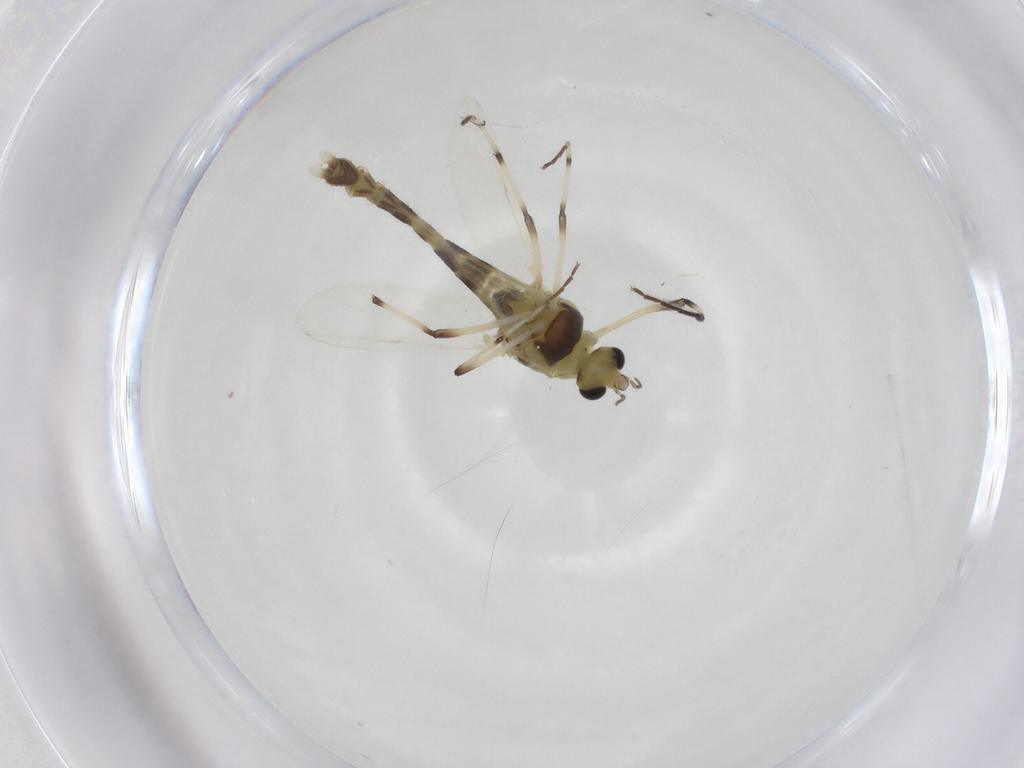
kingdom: Animalia
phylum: Arthropoda
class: Insecta
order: Diptera
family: Chironomidae
